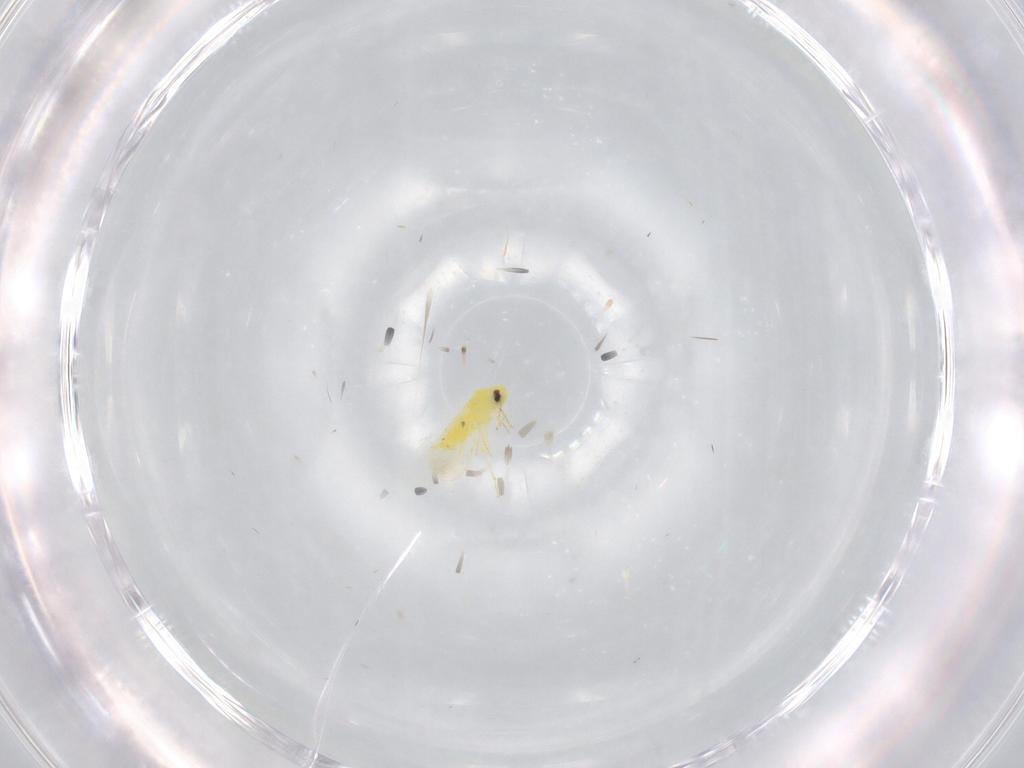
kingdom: Animalia
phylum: Arthropoda
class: Insecta
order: Hemiptera
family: Aleyrodidae
